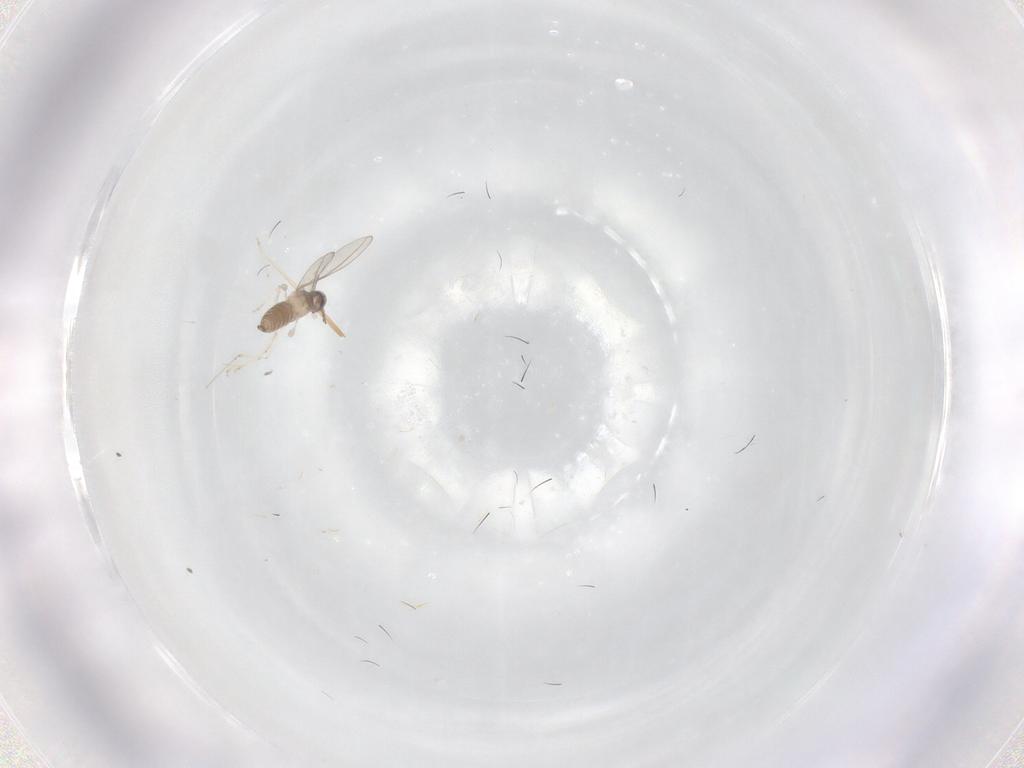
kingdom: Animalia
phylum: Arthropoda
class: Insecta
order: Diptera
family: Cecidomyiidae
